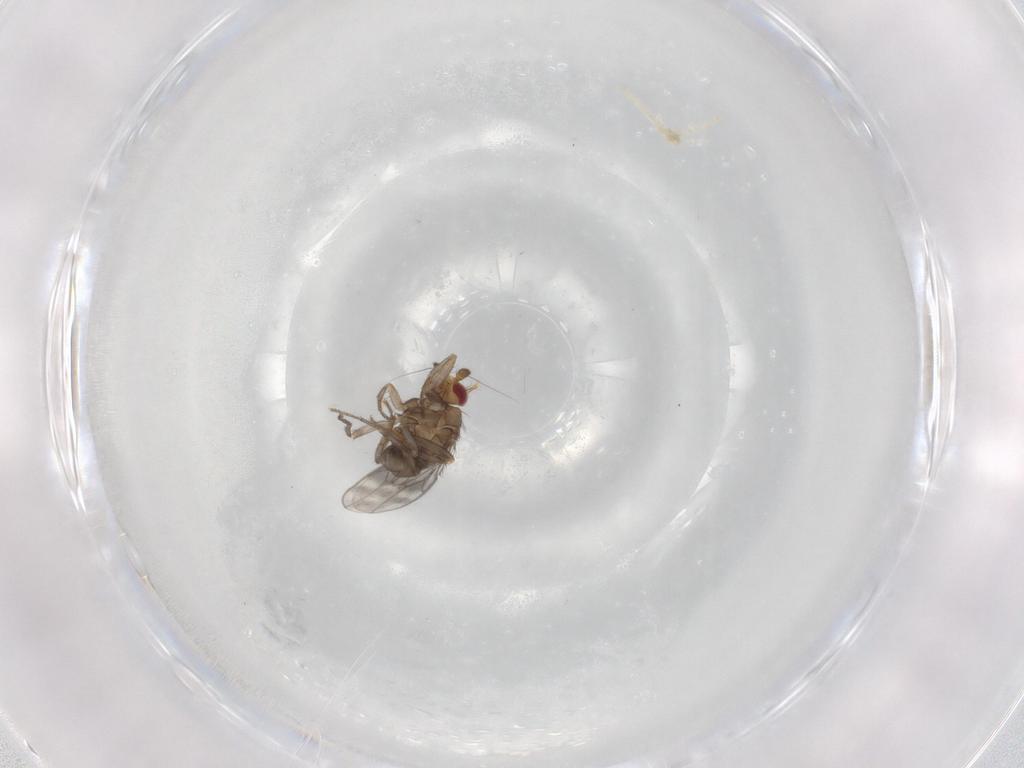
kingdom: Animalia
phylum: Arthropoda
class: Insecta
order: Diptera
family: Sphaeroceridae
